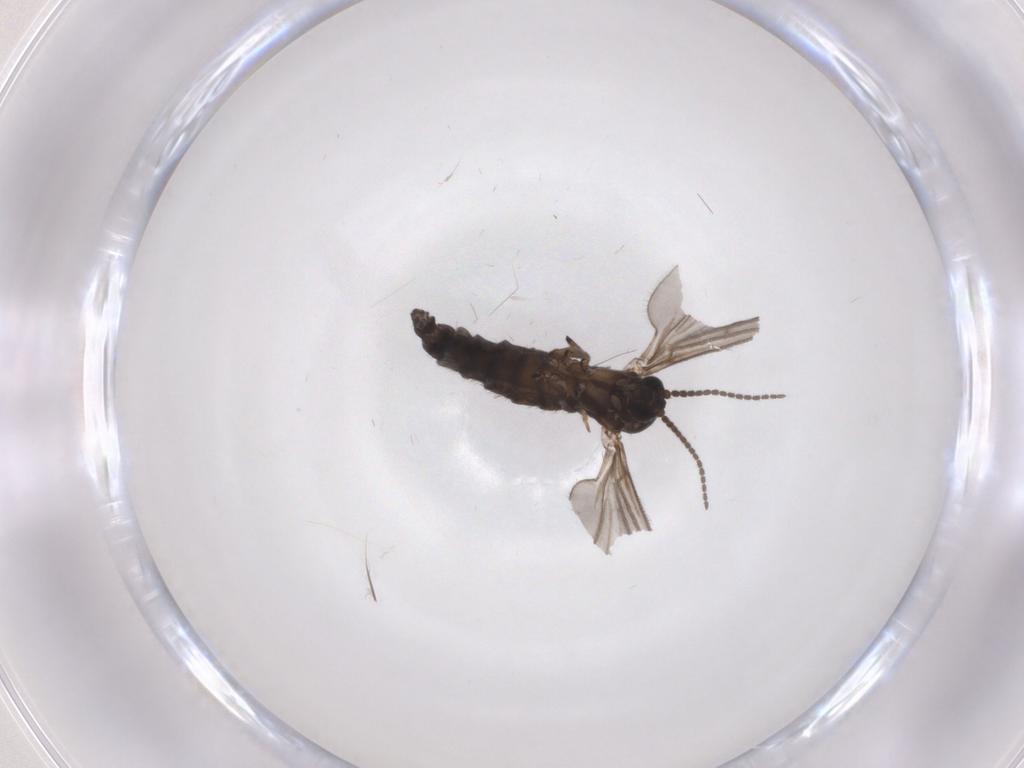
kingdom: Animalia
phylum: Arthropoda
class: Insecta
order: Diptera
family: Sciaridae
